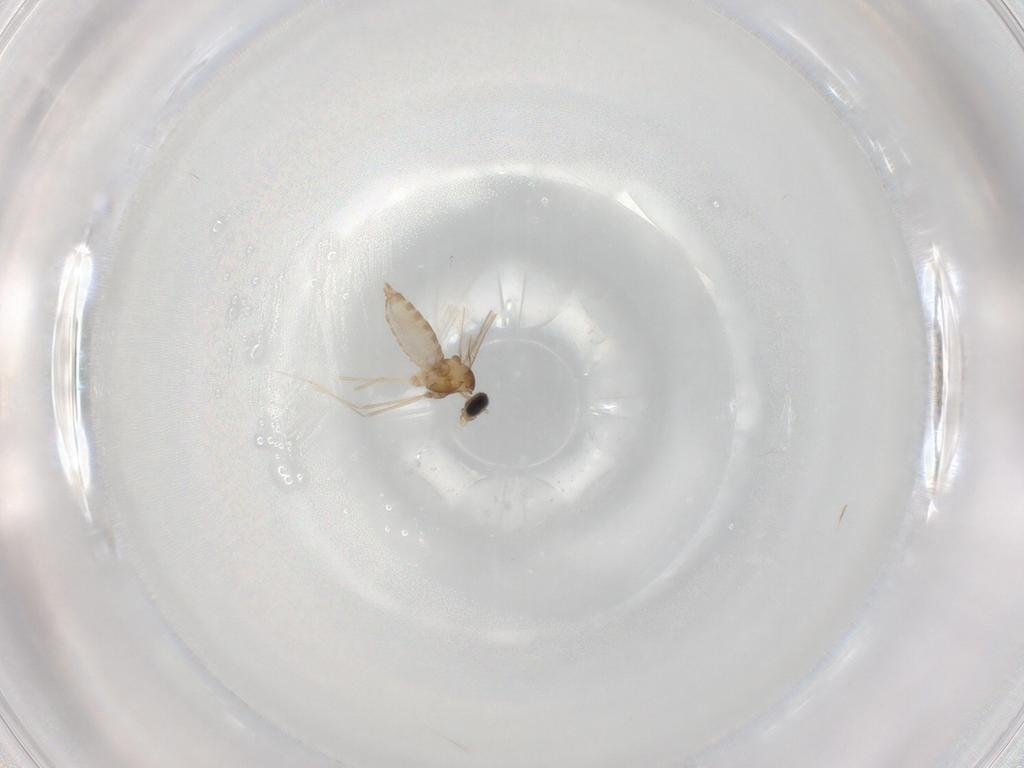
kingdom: Animalia
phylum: Arthropoda
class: Insecta
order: Diptera
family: Cecidomyiidae
